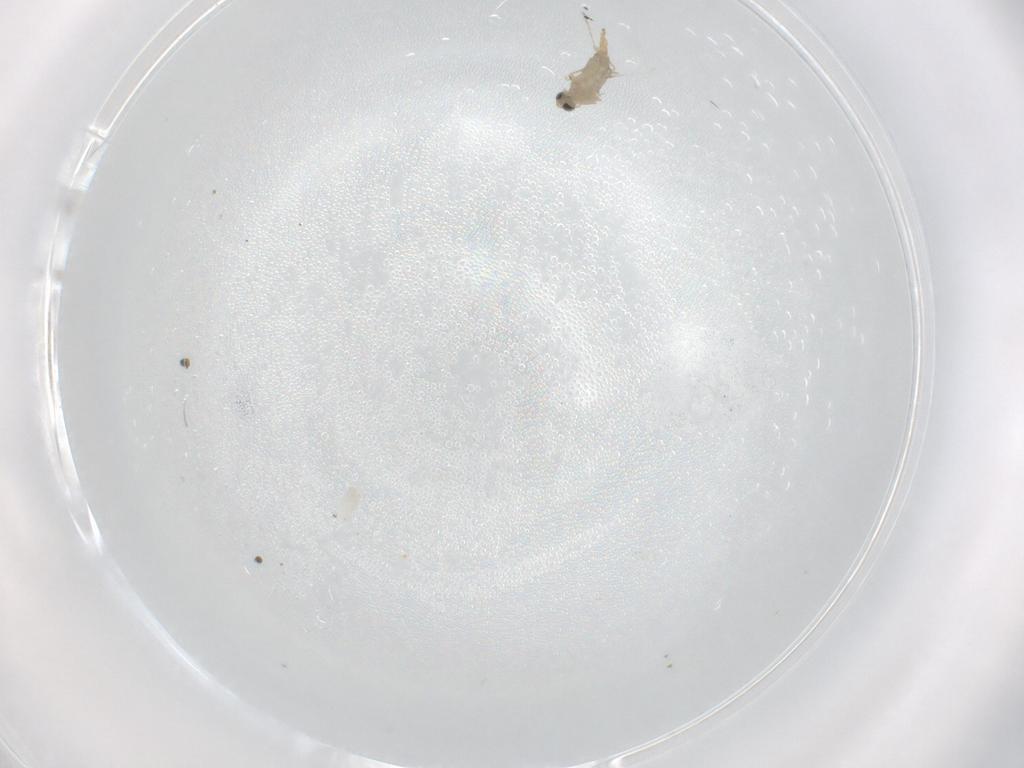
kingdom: Animalia
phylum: Arthropoda
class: Insecta
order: Diptera
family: Cecidomyiidae
